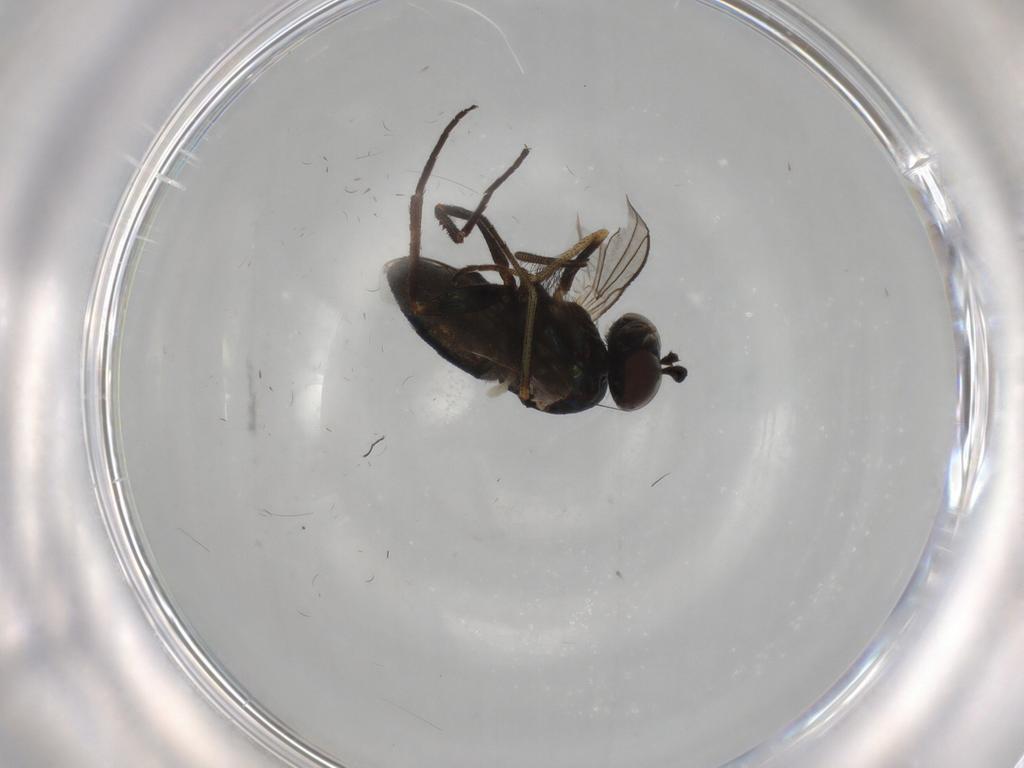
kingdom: Animalia
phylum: Arthropoda
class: Insecta
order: Diptera
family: Dolichopodidae
